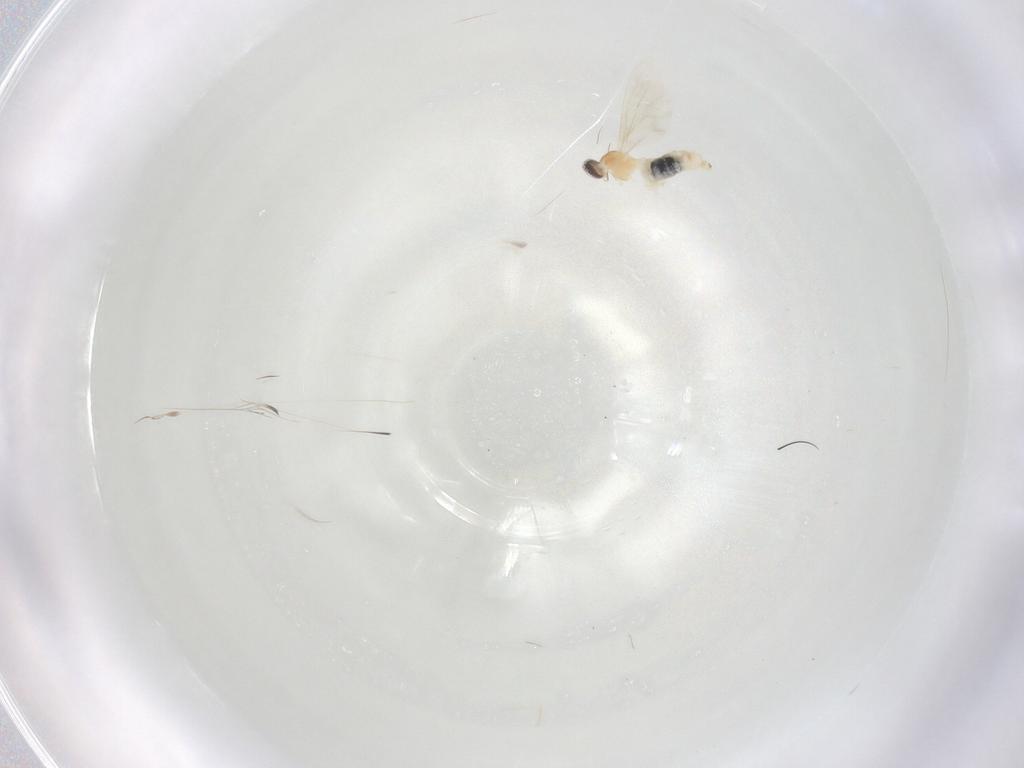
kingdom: Animalia
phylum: Arthropoda
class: Insecta
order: Diptera
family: Cecidomyiidae
